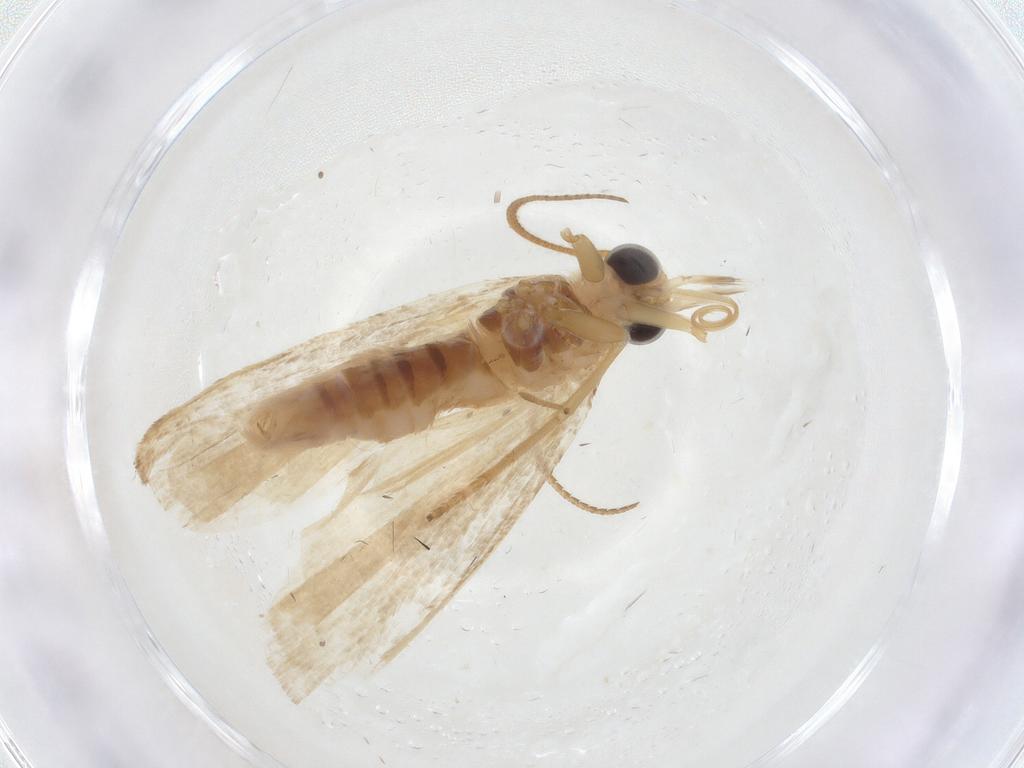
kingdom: Animalia
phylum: Arthropoda
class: Insecta
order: Lepidoptera
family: Pyralidae
